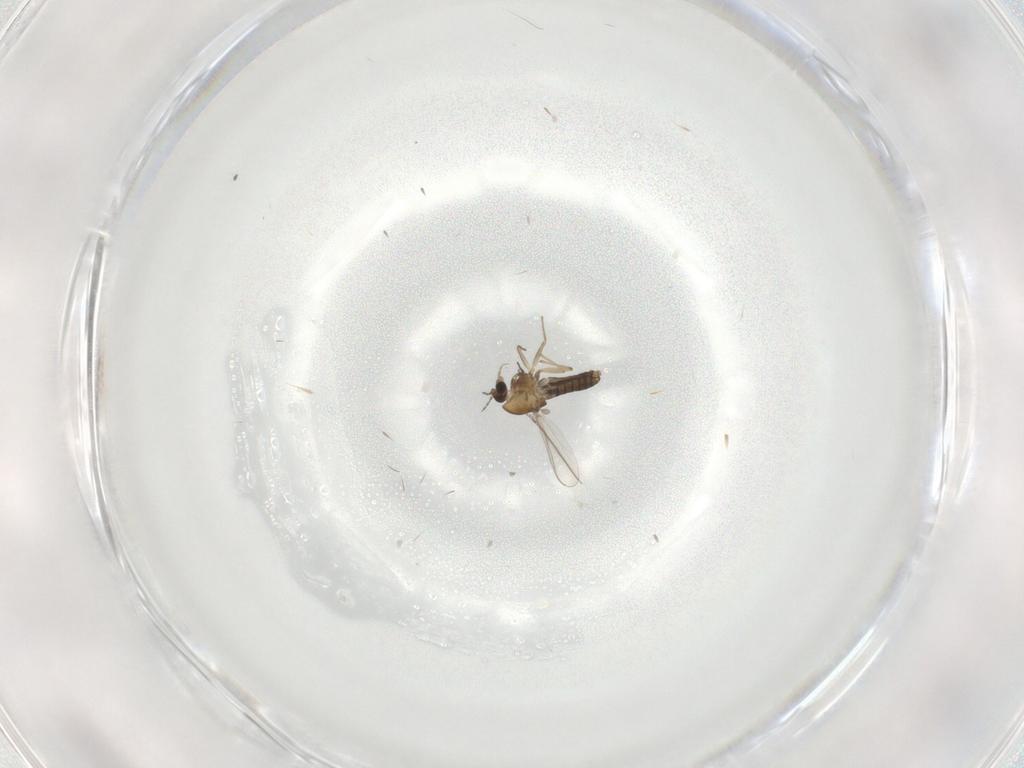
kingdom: Animalia
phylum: Arthropoda
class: Insecta
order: Diptera
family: Chironomidae
